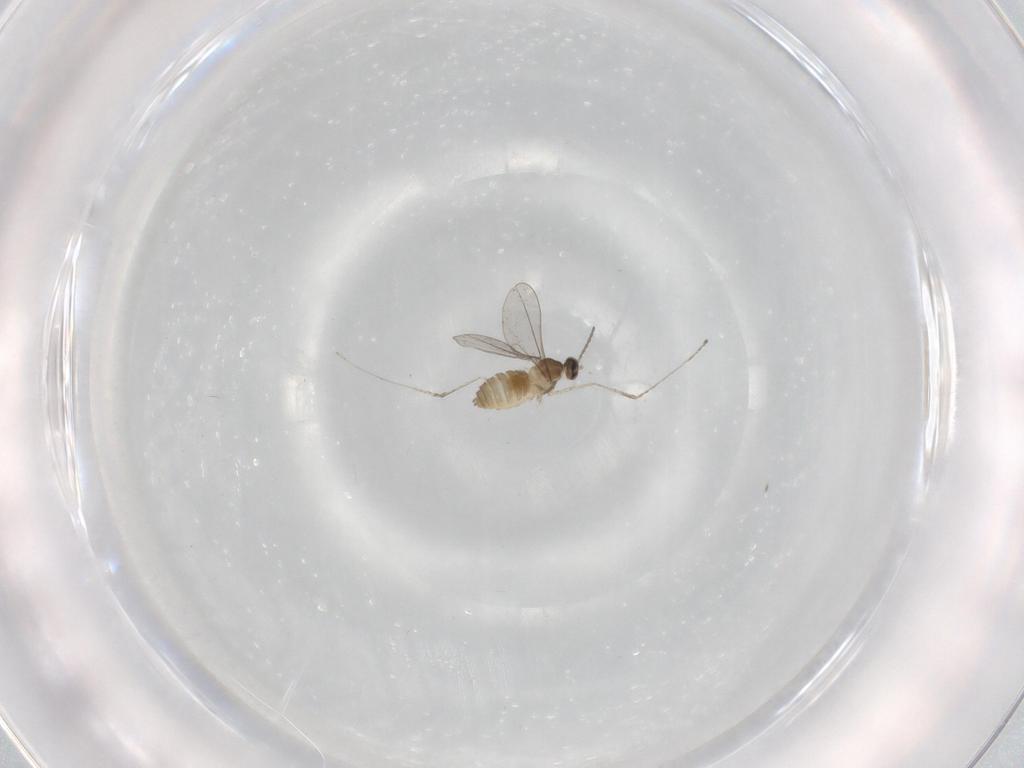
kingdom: Animalia
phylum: Arthropoda
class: Insecta
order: Diptera
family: Cecidomyiidae
